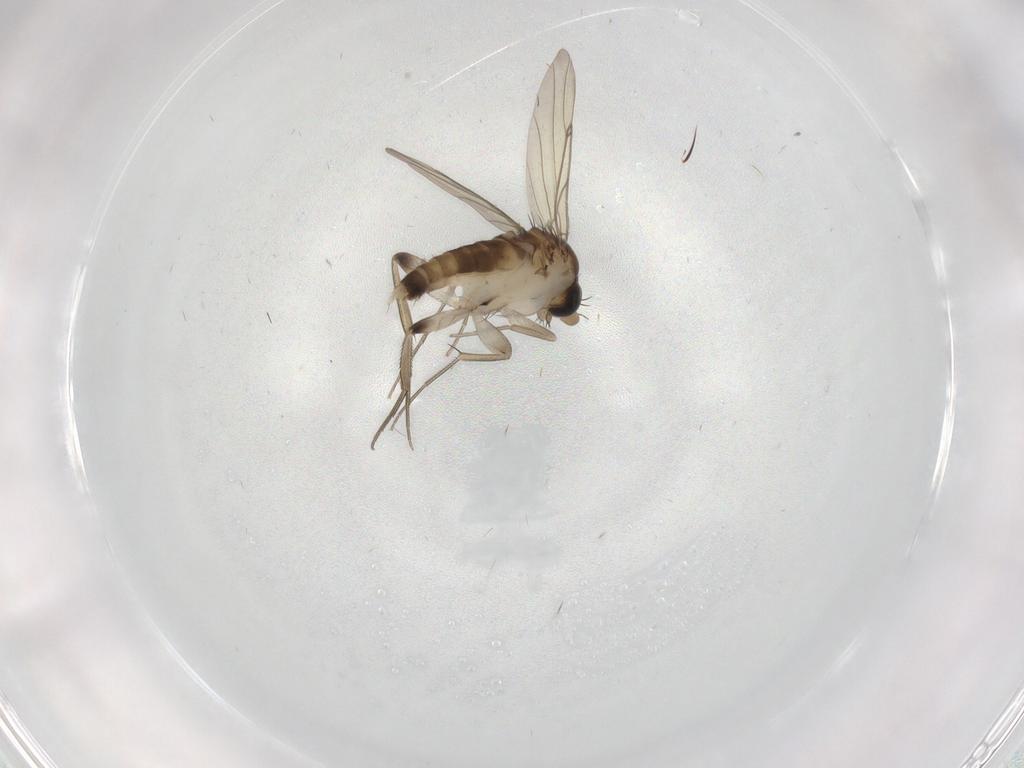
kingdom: Animalia
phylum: Arthropoda
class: Insecta
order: Diptera
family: Phoridae
